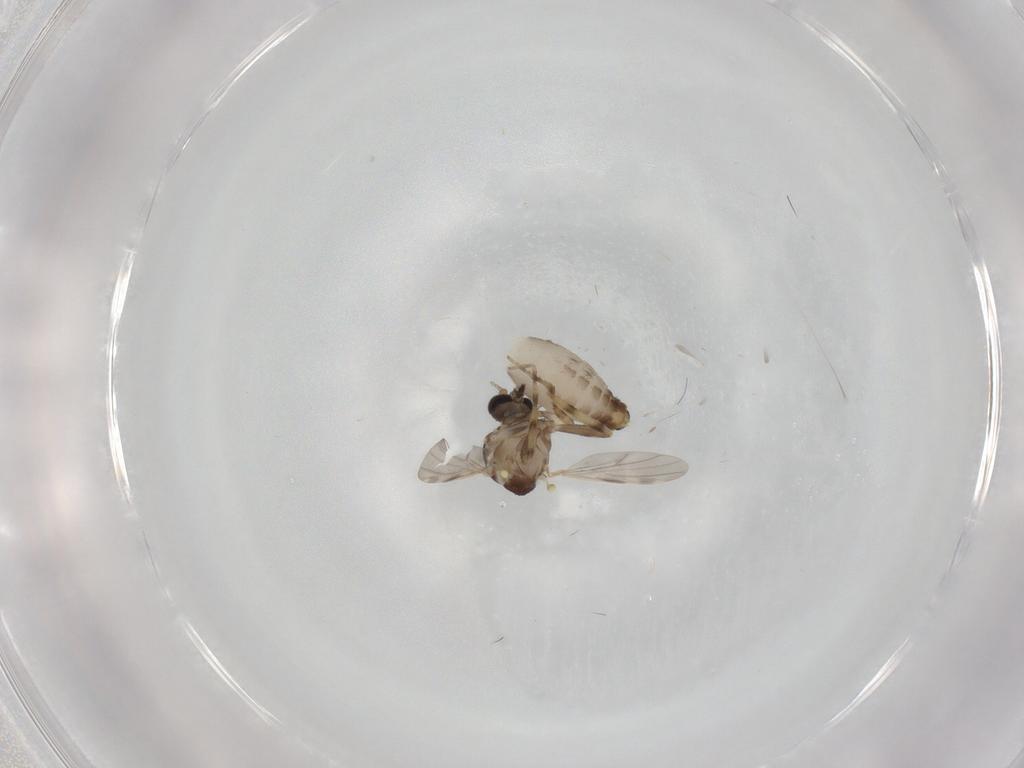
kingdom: Animalia
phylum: Arthropoda
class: Insecta
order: Diptera
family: Ceratopogonidae
